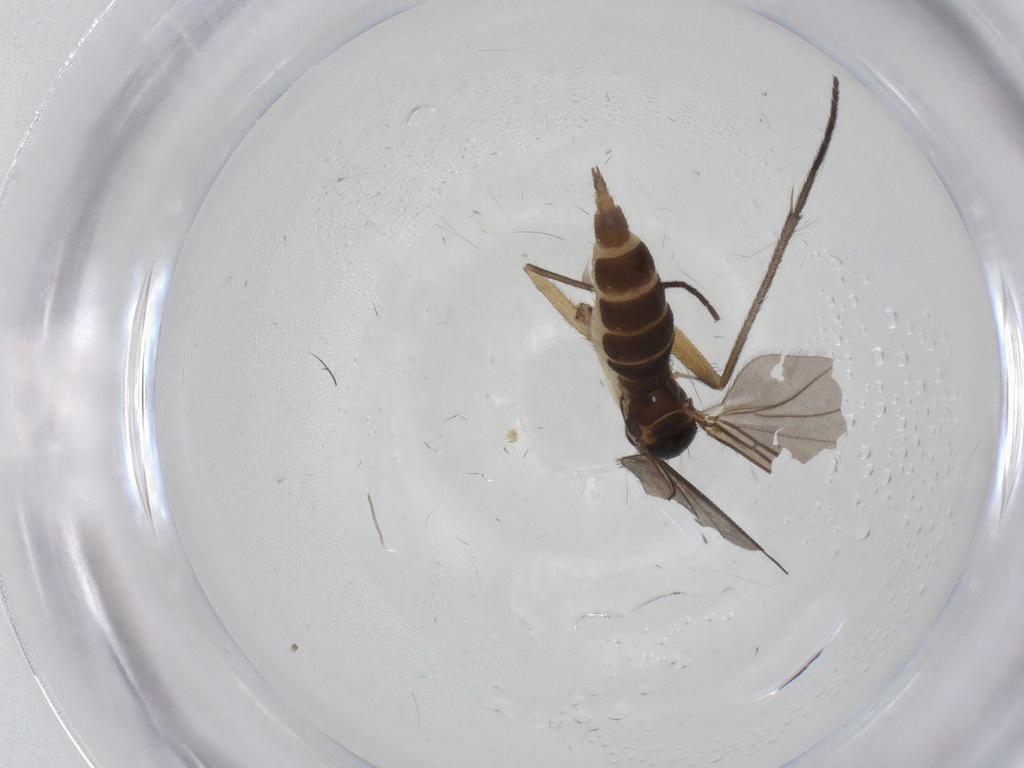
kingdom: Animalia
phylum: Arthropoda
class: Insecta
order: Diptera
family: Sciaridae
